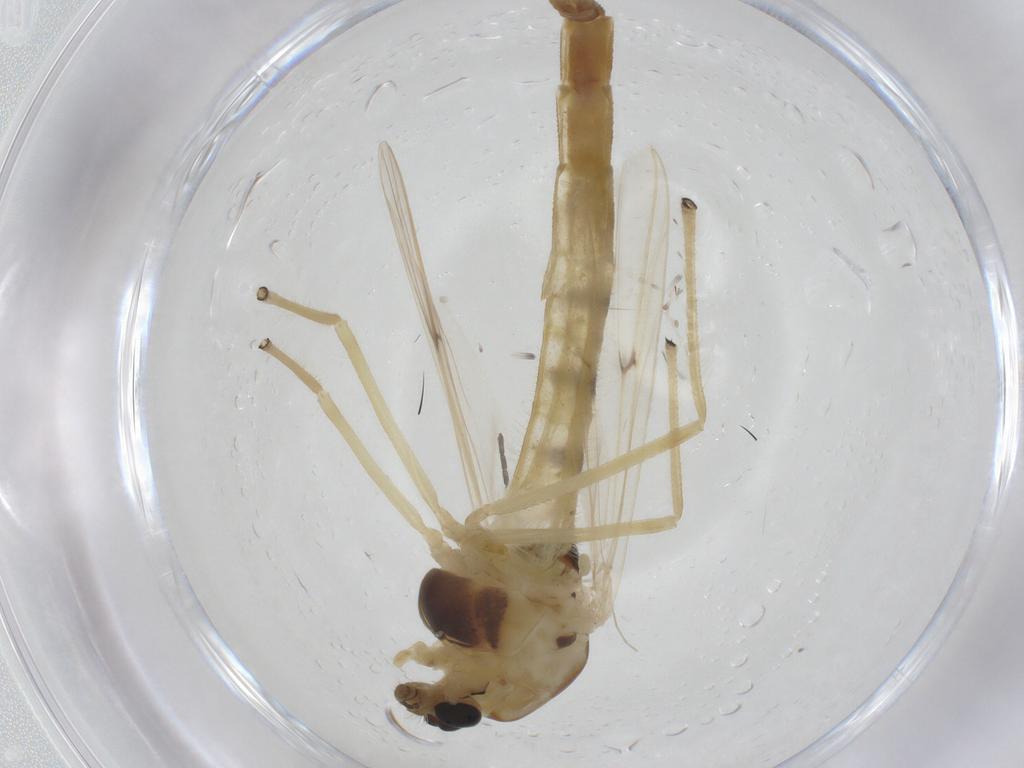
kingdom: Animalia
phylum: Arthropoda
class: Insecta
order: Diptera
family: Chironomidae
